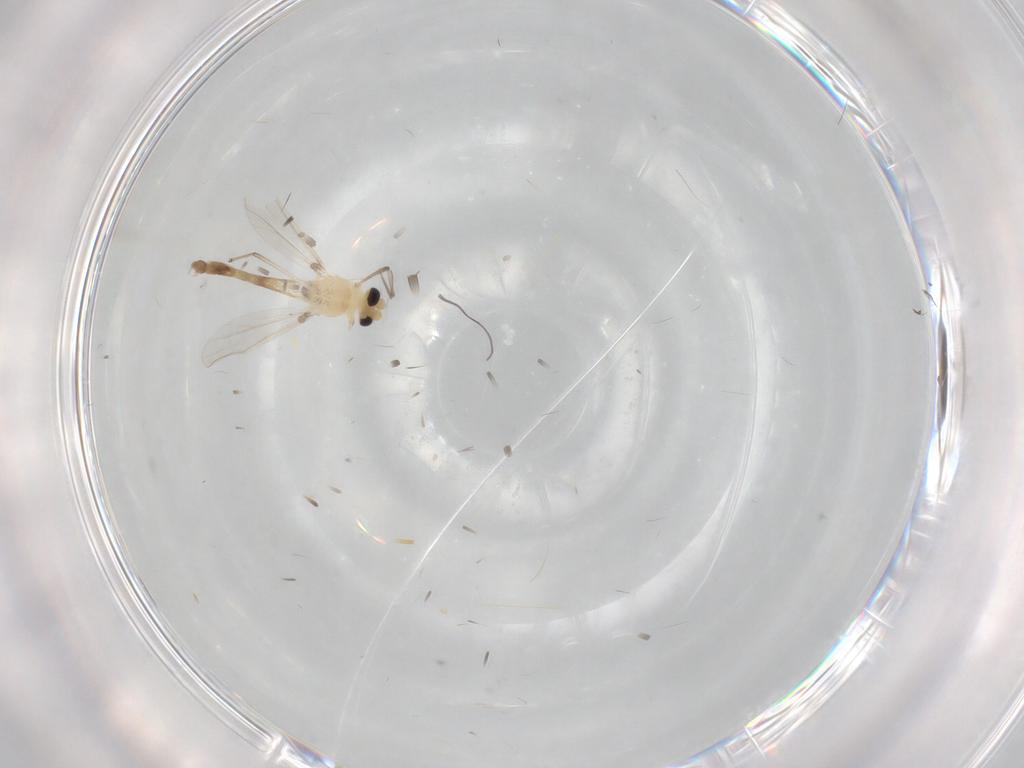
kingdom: Animalia
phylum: Arthropoda
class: Insecta
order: Diptera
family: Chironomidae
